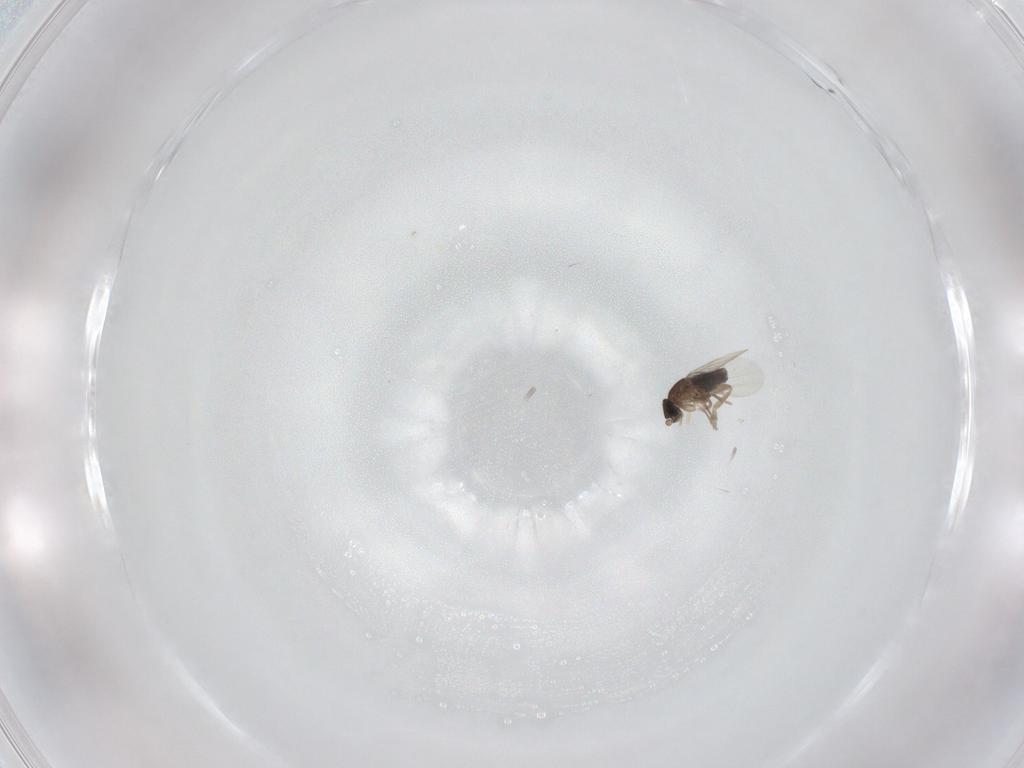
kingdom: Animalia
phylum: Arthropoda
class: Insecta
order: Diptera
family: Phoridae
